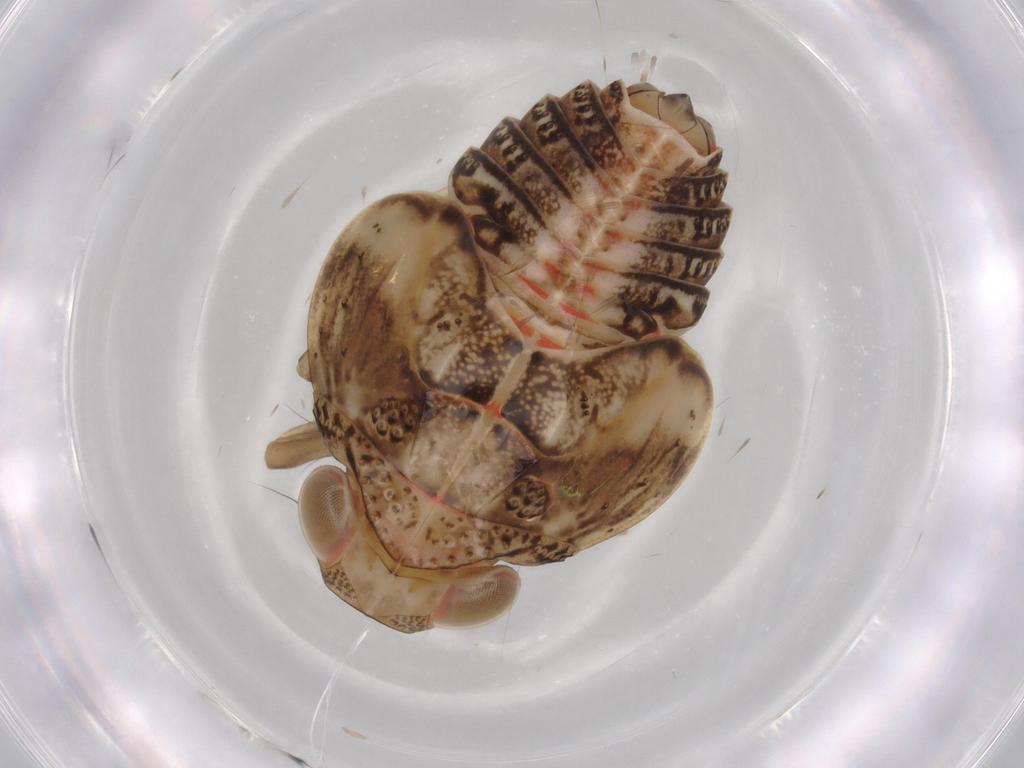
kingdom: Animalia
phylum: Arthropoda
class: Insecta
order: Hemiptera
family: Issidae
